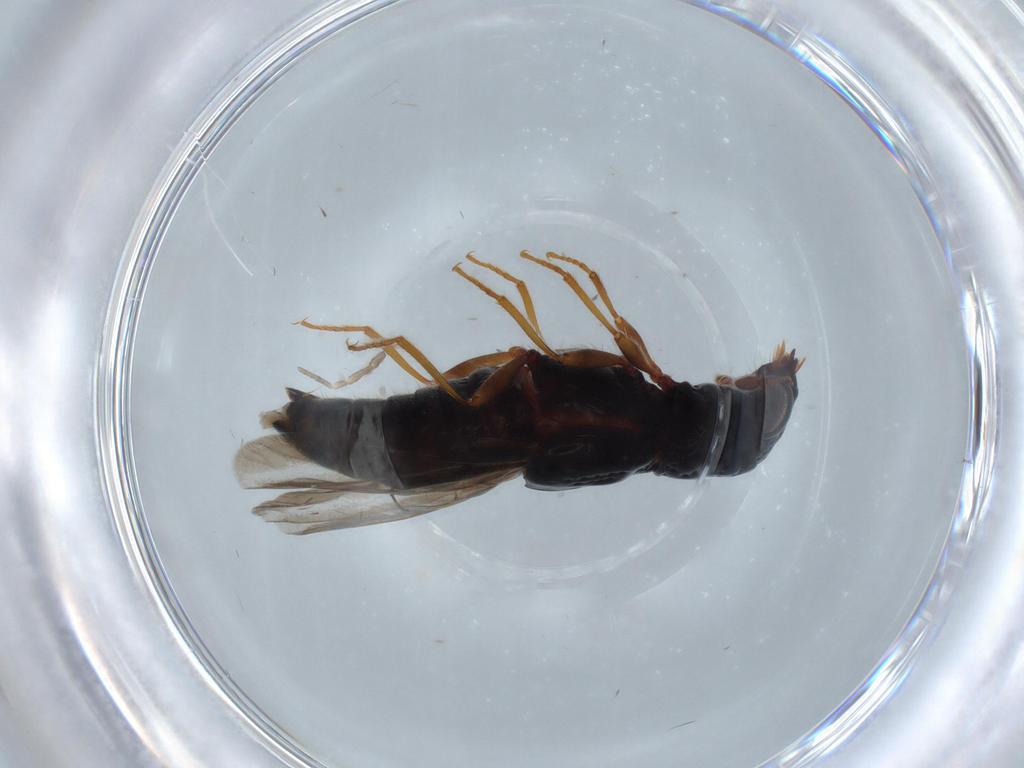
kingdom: Animalia
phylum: Arthropoda
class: Insecta
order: Coleoptera
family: Staphylinidae
